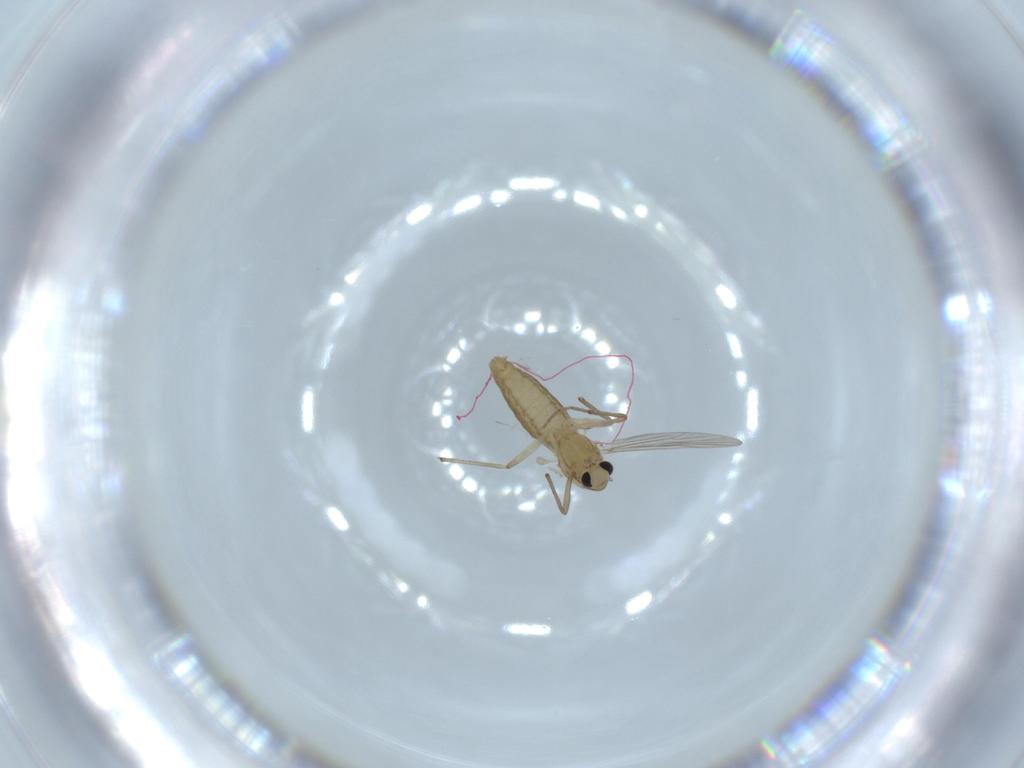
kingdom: Animalia
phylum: Arthropoda
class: Insecta
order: Diptera
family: Chironomidae
